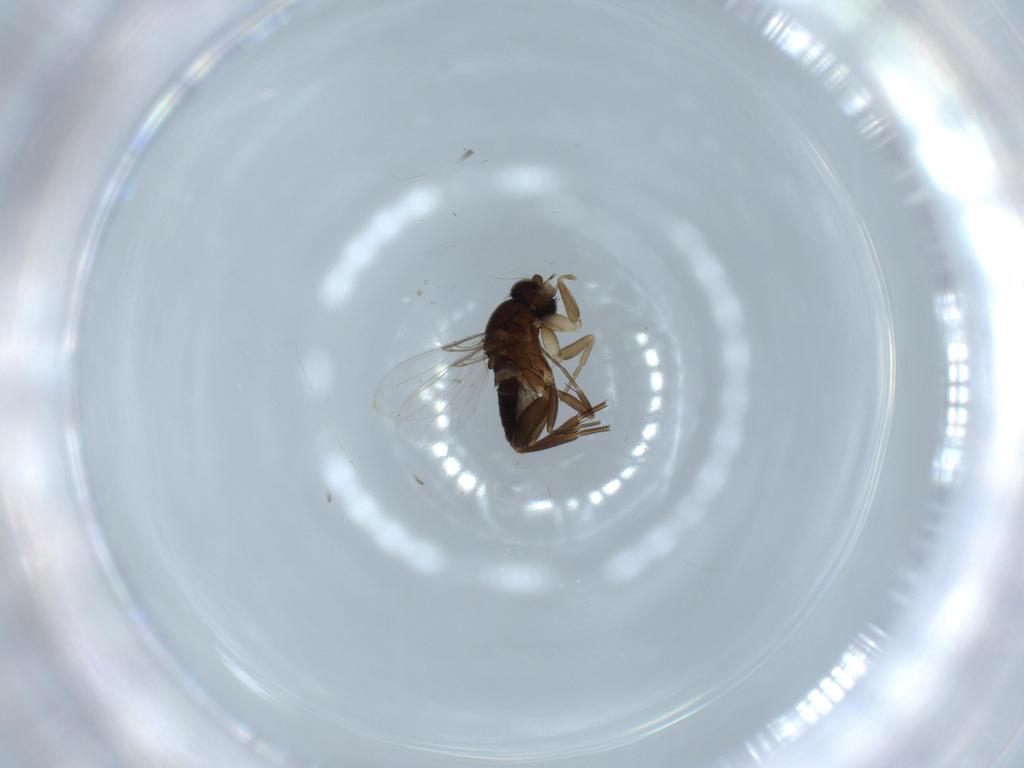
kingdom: Animalia
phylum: Arthropoda
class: Insecta
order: Diptera
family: Phoridae
